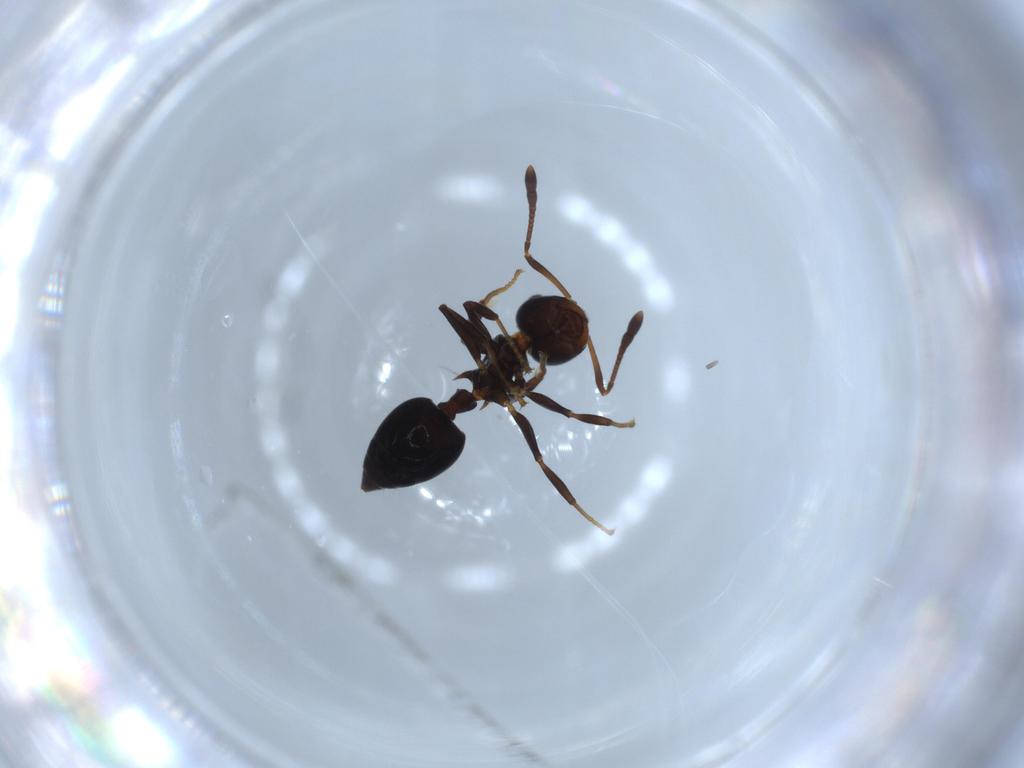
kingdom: Animalia
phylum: Arthropoda
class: Insecta
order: Hymenoptera
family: Formicidae
